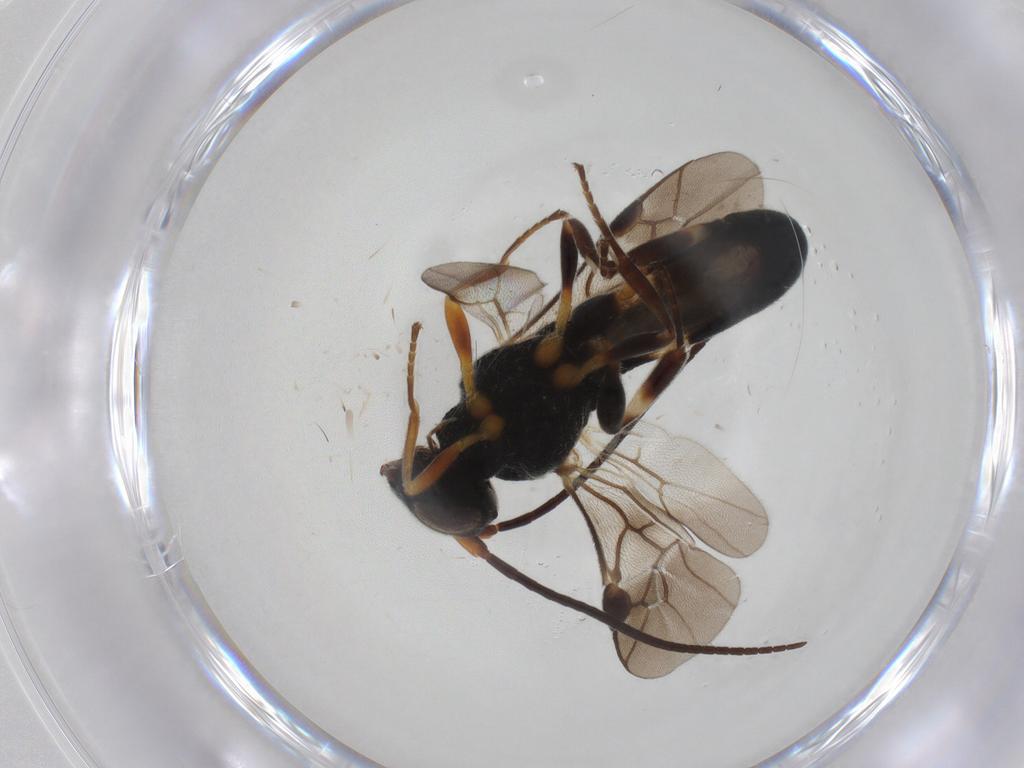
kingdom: Animalia
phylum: Arthropoda
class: Insecta
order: Hymenoptera
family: Braconidae
